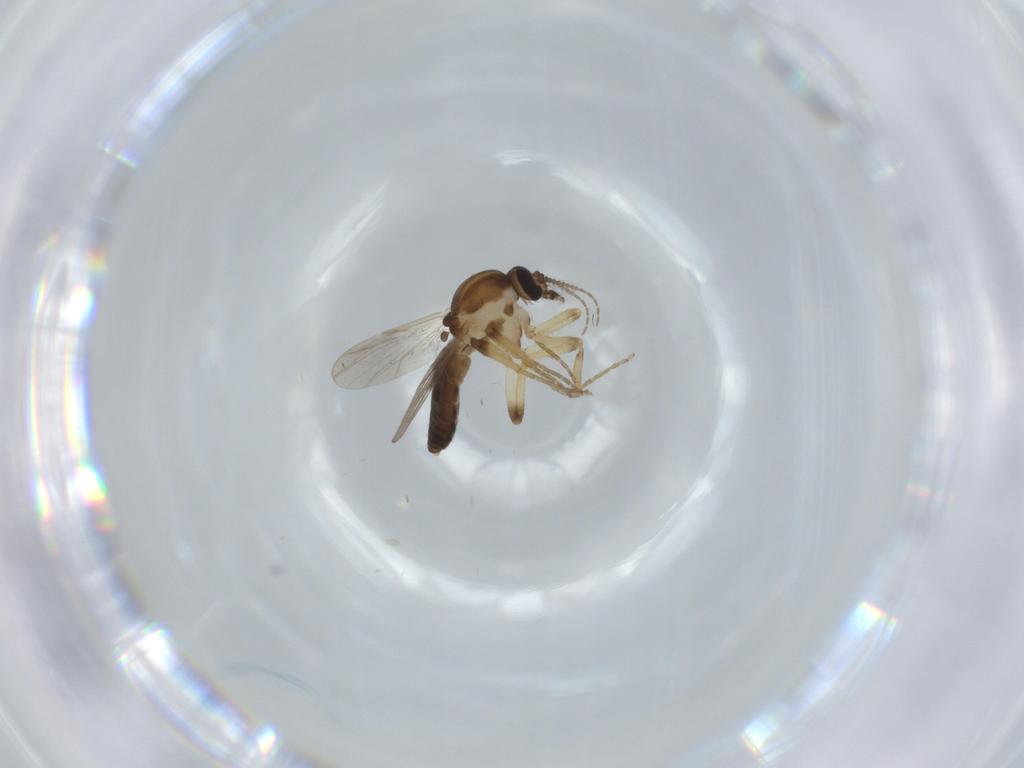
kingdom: Animalia
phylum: Arthropoda
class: Insecta
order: Diptera
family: Ceratopogonidae
